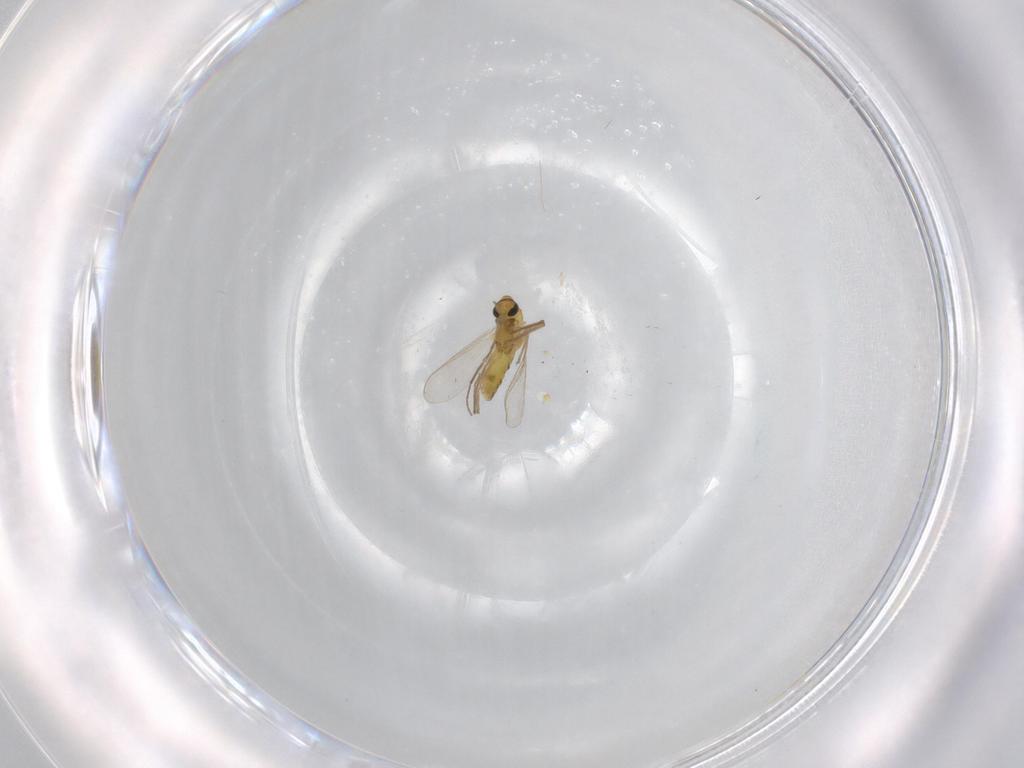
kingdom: Animalia
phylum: Arthropoda
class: Insecta
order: Diptera
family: Chironomidae
